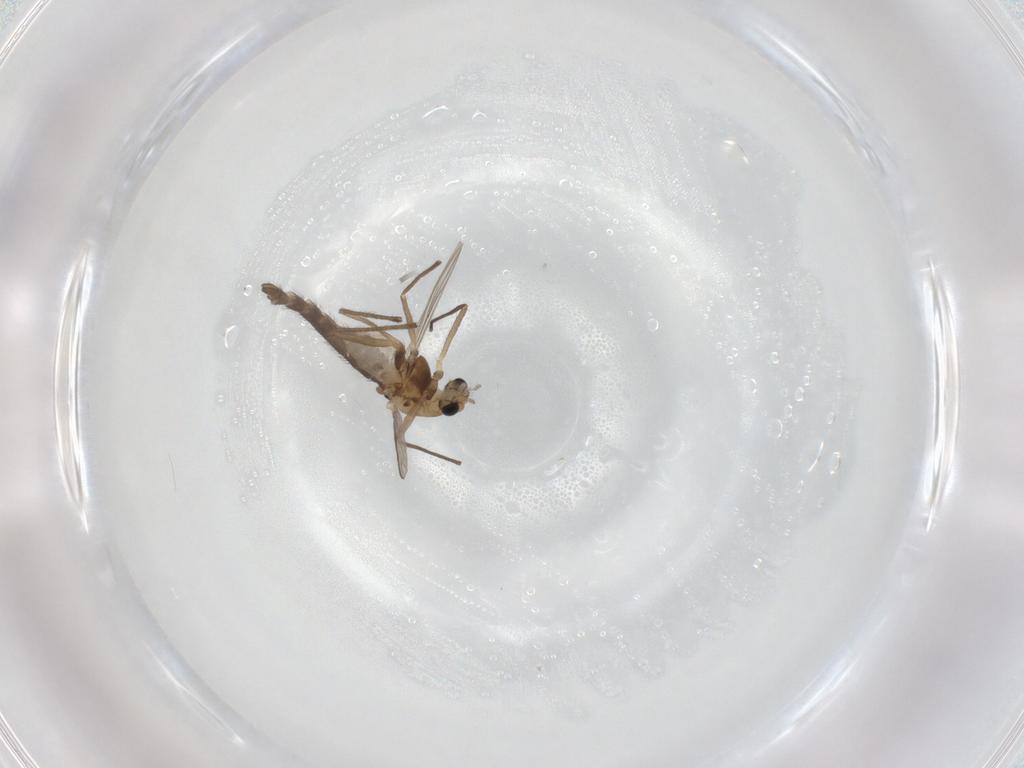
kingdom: Animalia
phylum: Arthropoda
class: Insecta
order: Diptera
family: Chironomidae
